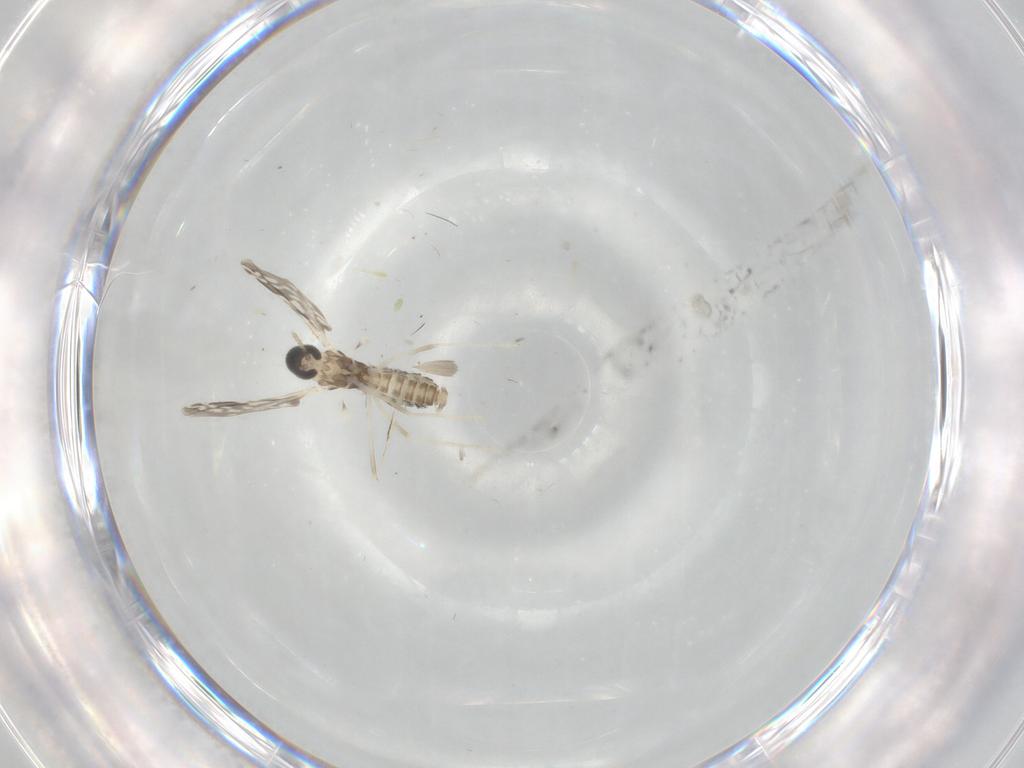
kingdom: Animalia
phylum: Arthropoda
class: Insecta
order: Diptera
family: Cecidomyiidae
